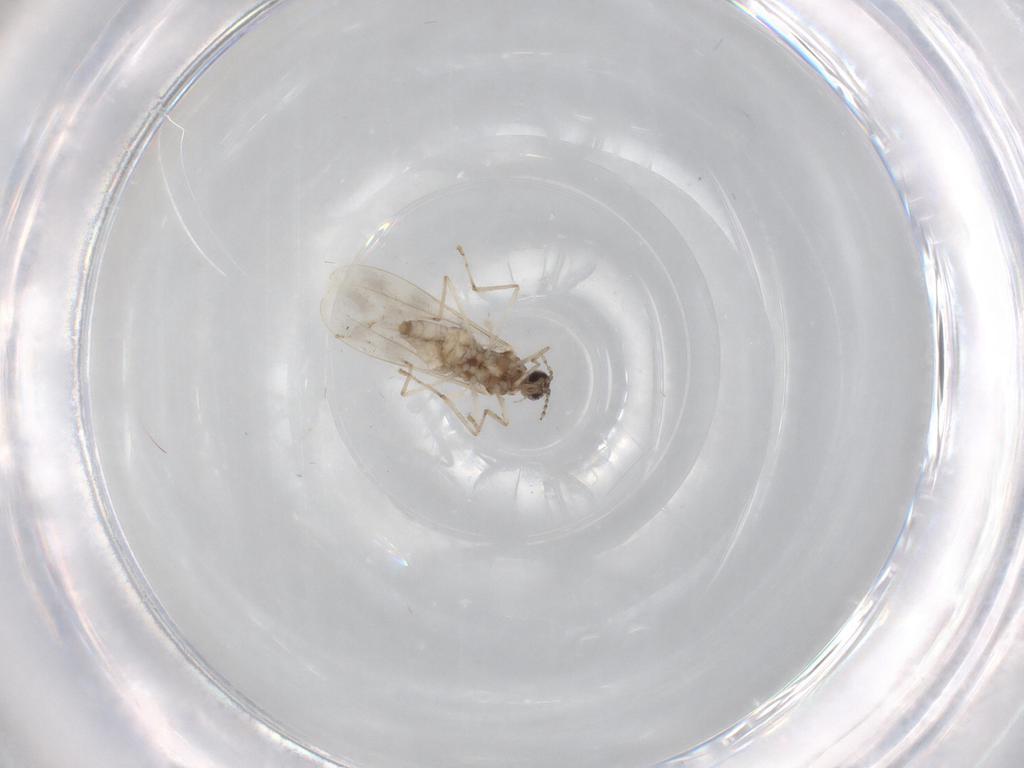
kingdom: Animalia
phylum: Arthropoda
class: Insecta
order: Diptera
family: Cecidomyiidae
